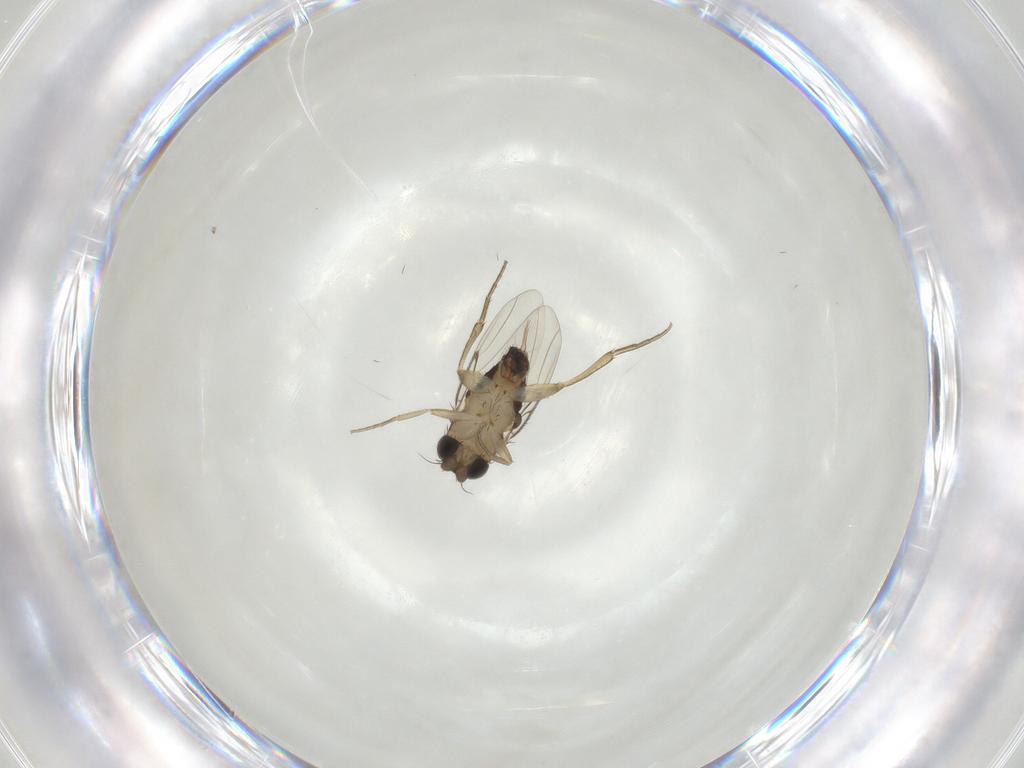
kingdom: Animalia
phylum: Arthropoda
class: Insecta
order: Diptera
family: Phoridae
